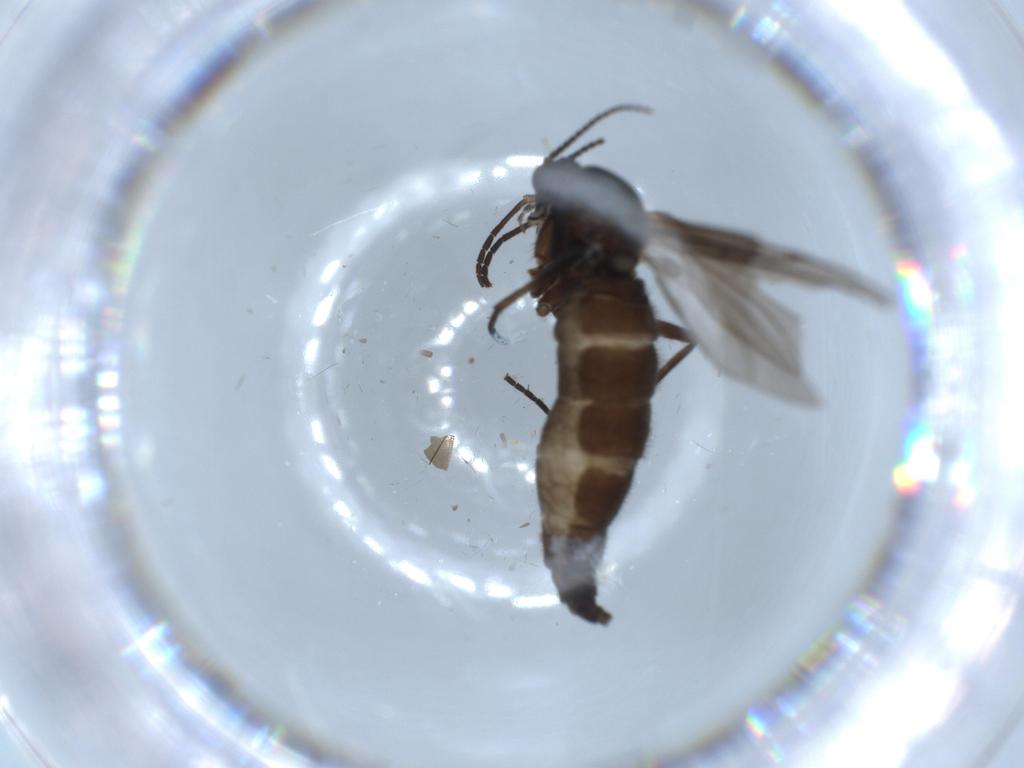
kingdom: Animalia
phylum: Arthropoda
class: Insecta
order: Diptera
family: Sciaridae
